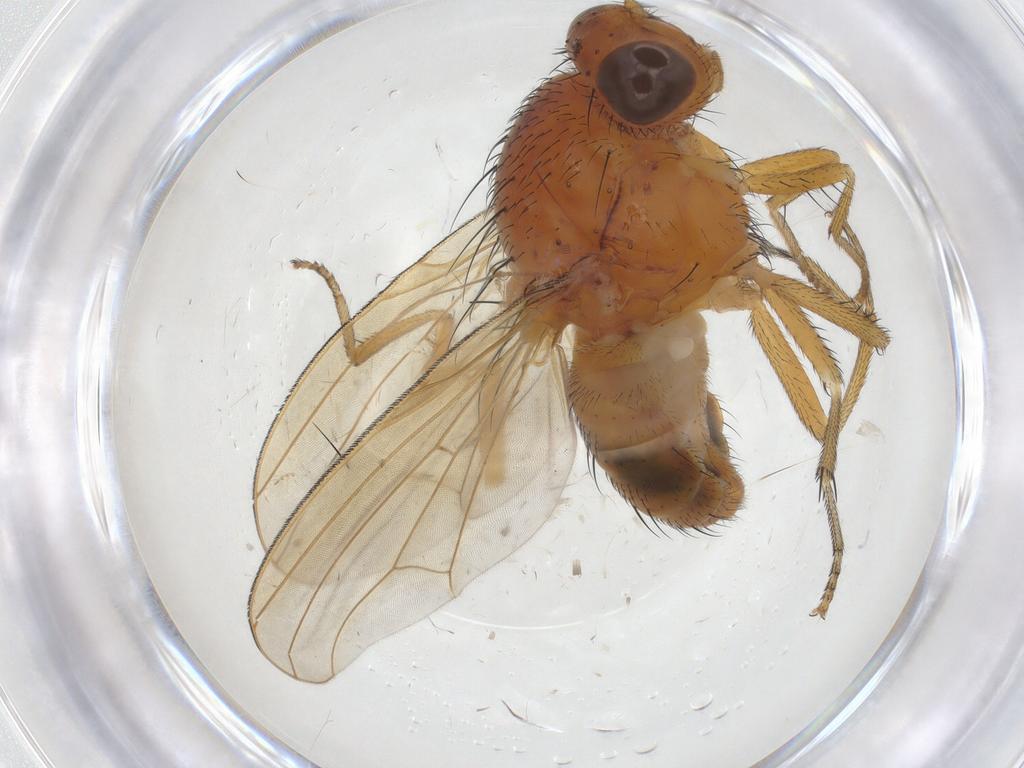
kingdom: Animalia
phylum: Arthropoda
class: Insecta
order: Diptera
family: Chironomidae
